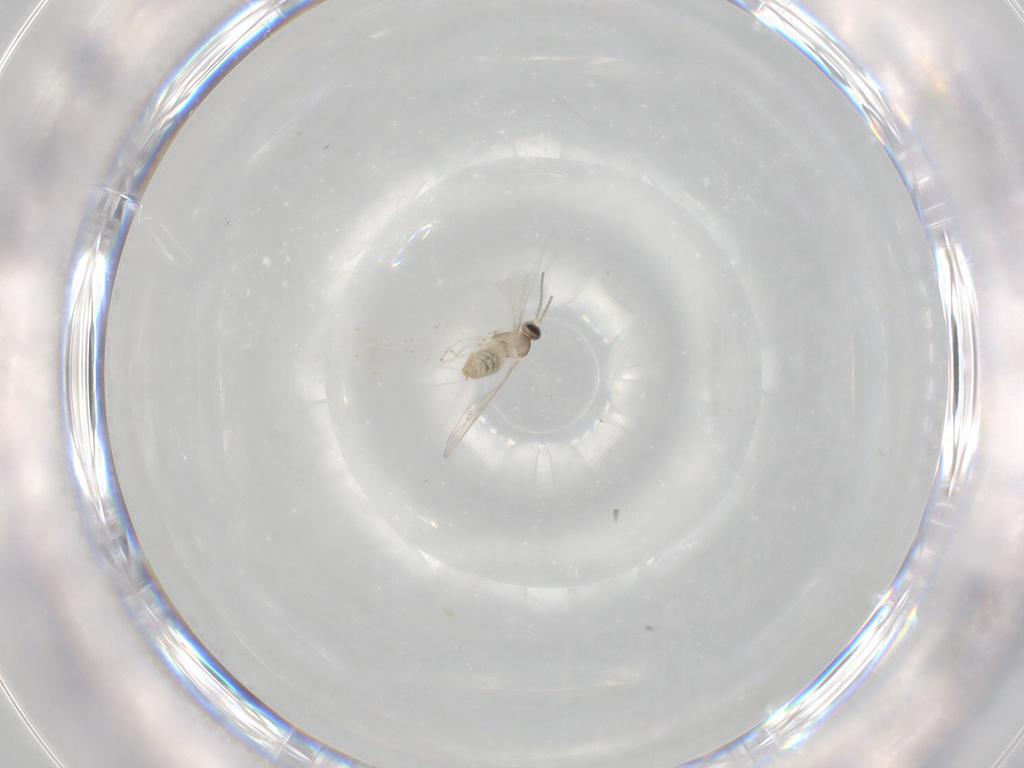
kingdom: Animalia
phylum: Arthropoda
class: Insecta
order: Diptera
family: Cecidomyiidae
